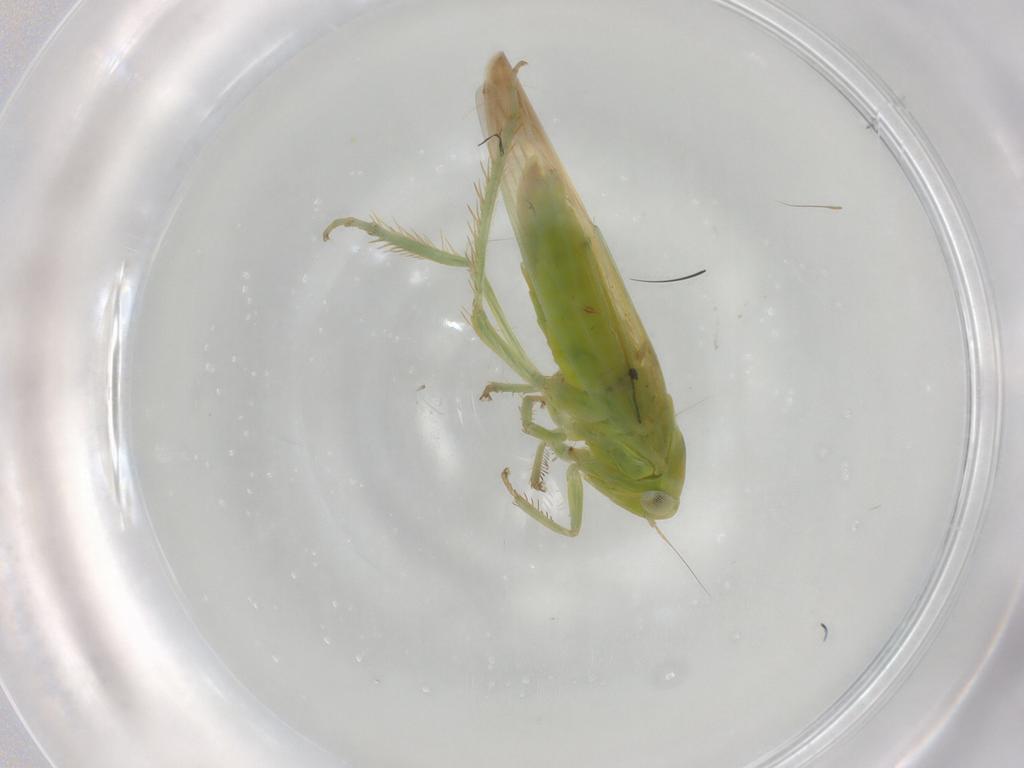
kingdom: Animalia
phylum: Arthropoda
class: Insecta
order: Hemiptera
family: Cicadellidae
